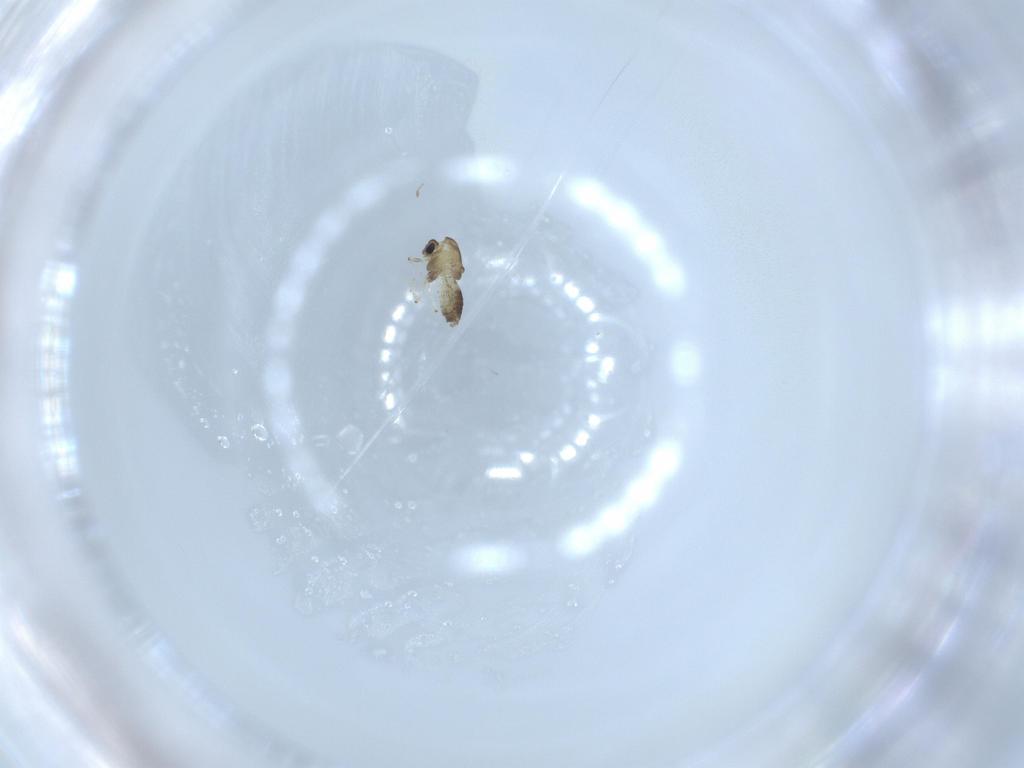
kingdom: Animalia
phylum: Arthropoda
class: Insecta
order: Diptera
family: Chironomidae
